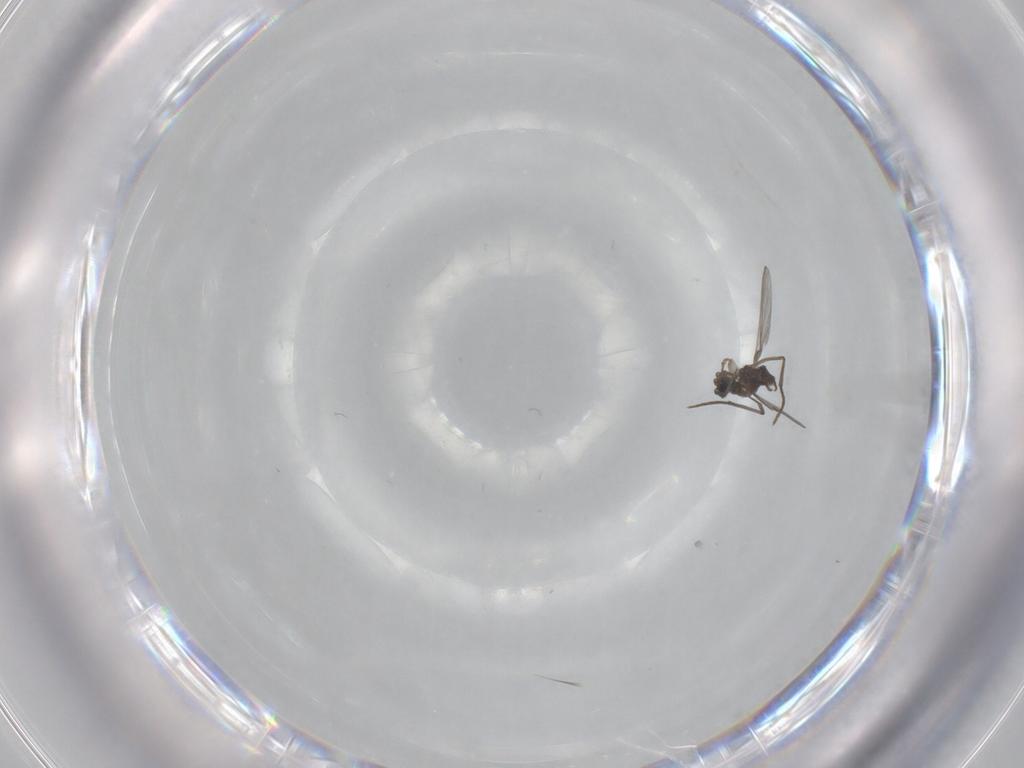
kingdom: Animalia
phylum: Arthropoda
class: Insecta
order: Diptera
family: Sciaridae
